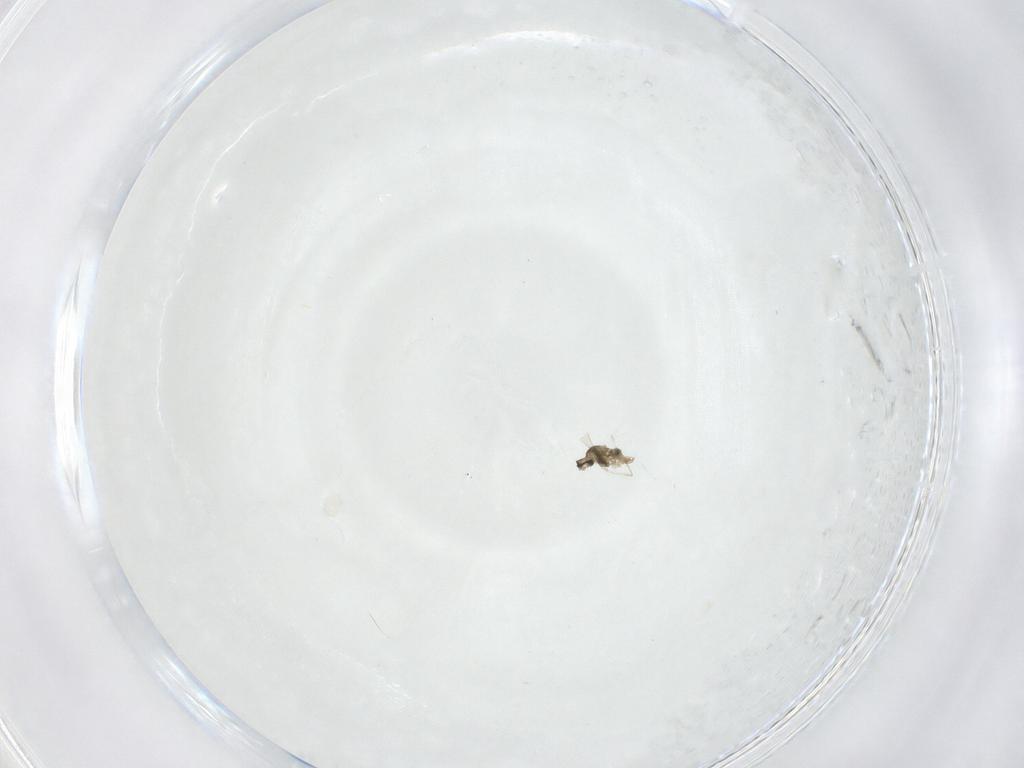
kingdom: Animalia
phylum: Arthropoda
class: Insecta
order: Diptera
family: Cecidomyiidae
